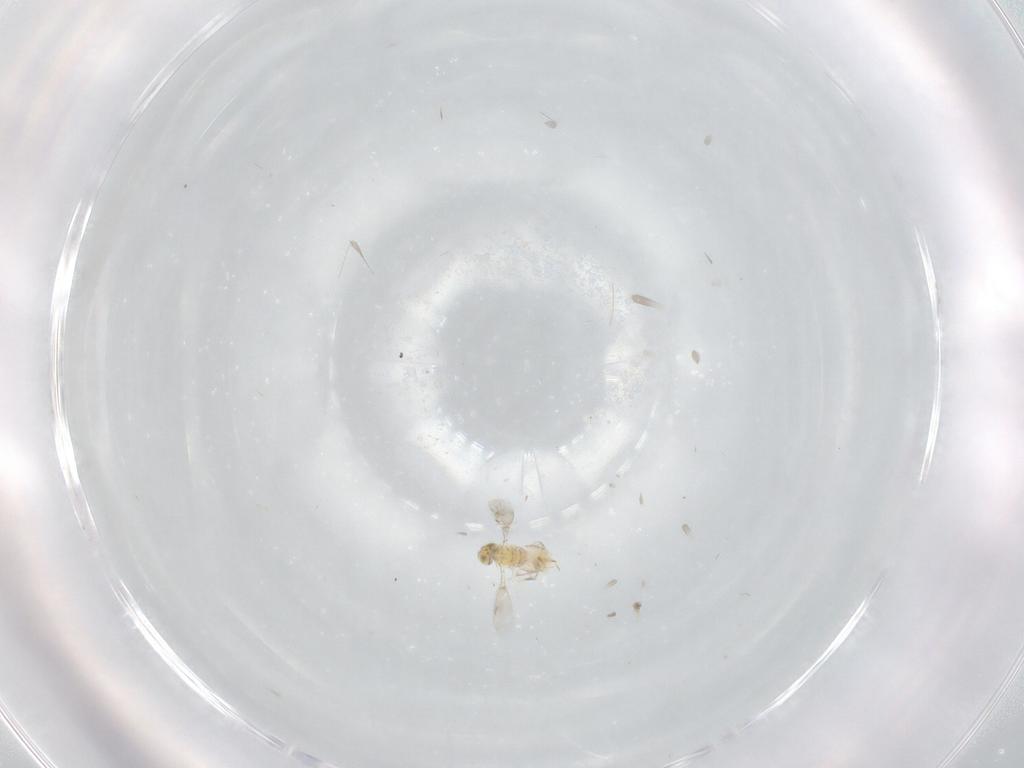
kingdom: Animalia
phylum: Arthropoda
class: Insecta
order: Hymenoptera
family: Aphelinidae
